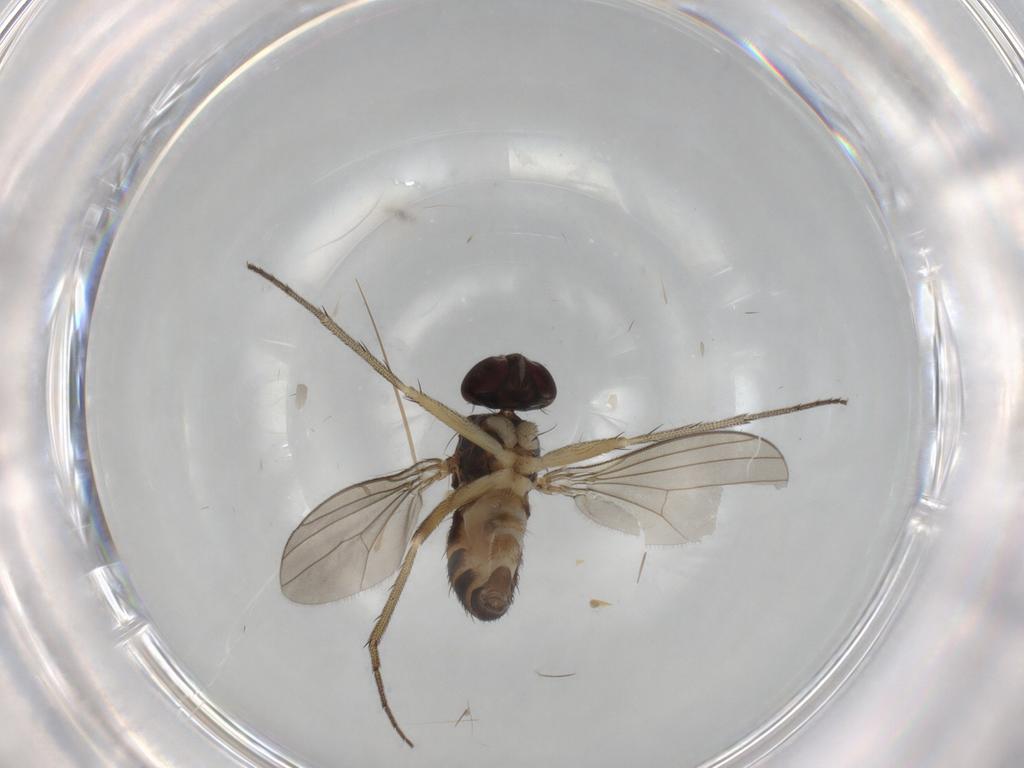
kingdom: Animalia
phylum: Arthropoda
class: Insecta
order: Diptera
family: Dolichopodidae
